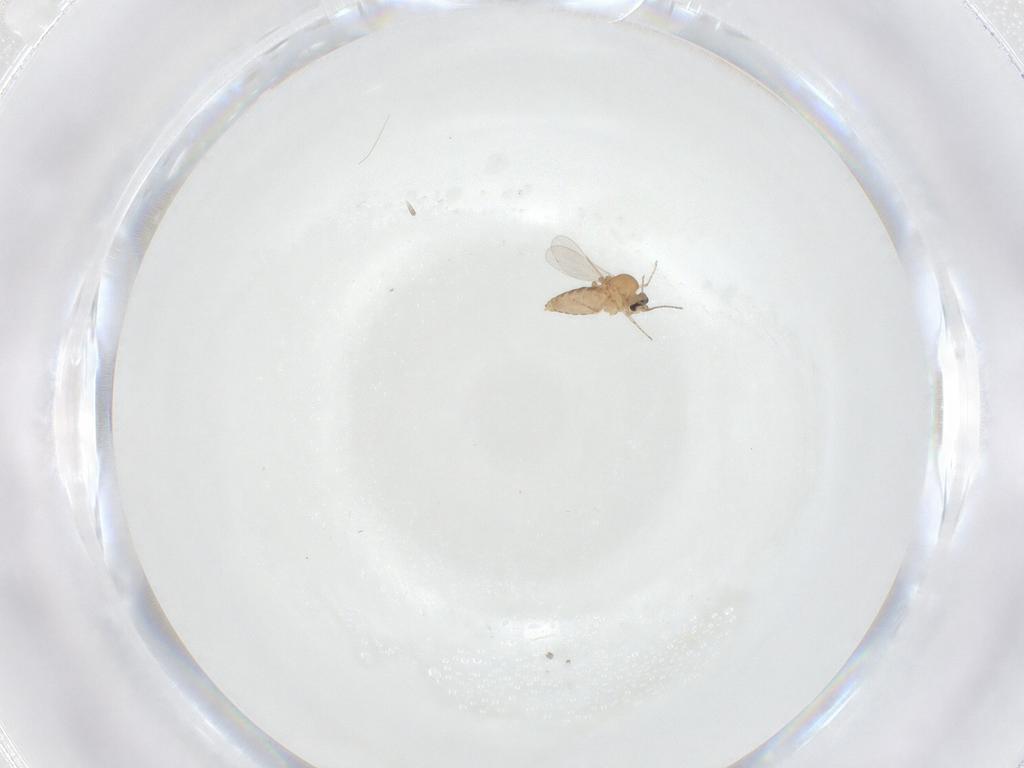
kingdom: Animalia
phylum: Arthropoda
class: Insecta
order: Diptera
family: Ceratopogonidae
